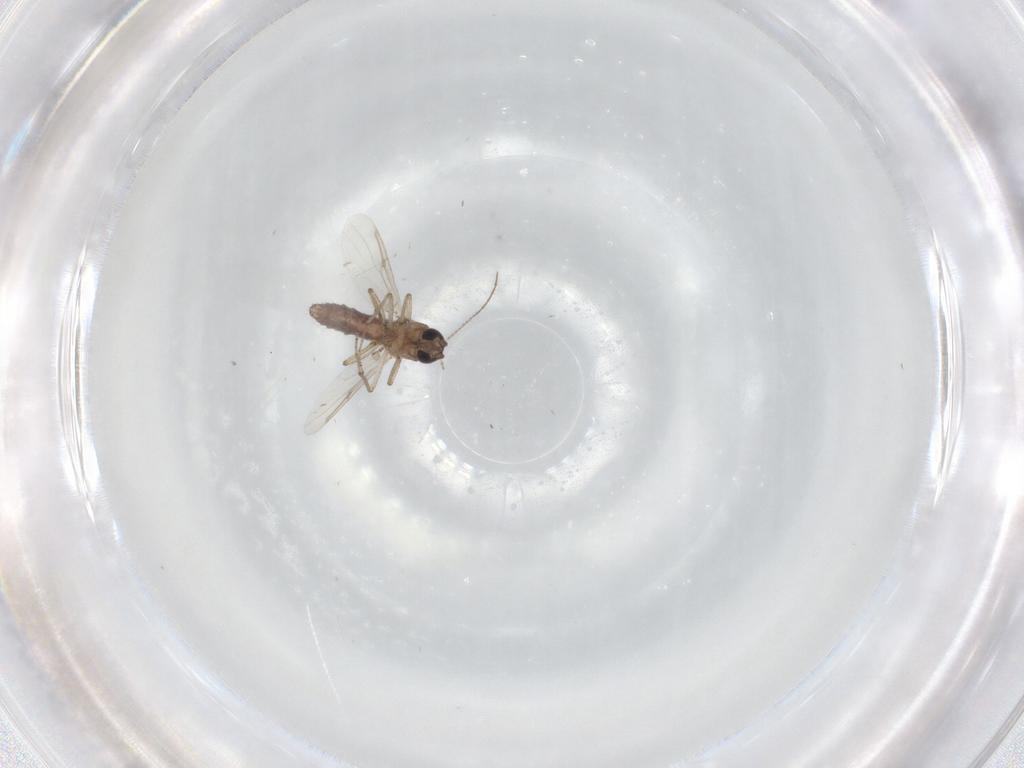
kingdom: Animalia
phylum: Arthropoda
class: Insecta
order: Diptera
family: Ceratopogonidae
